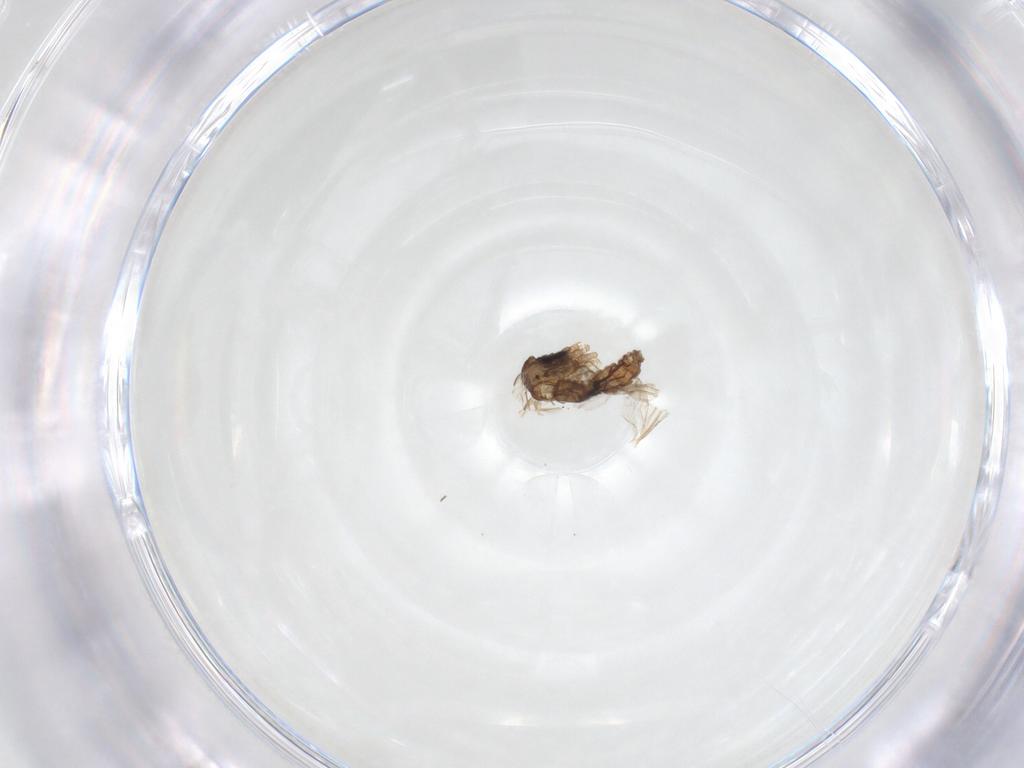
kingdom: Animalia
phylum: Arthropoda
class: Insecta
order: Diptera
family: Psychodidae
